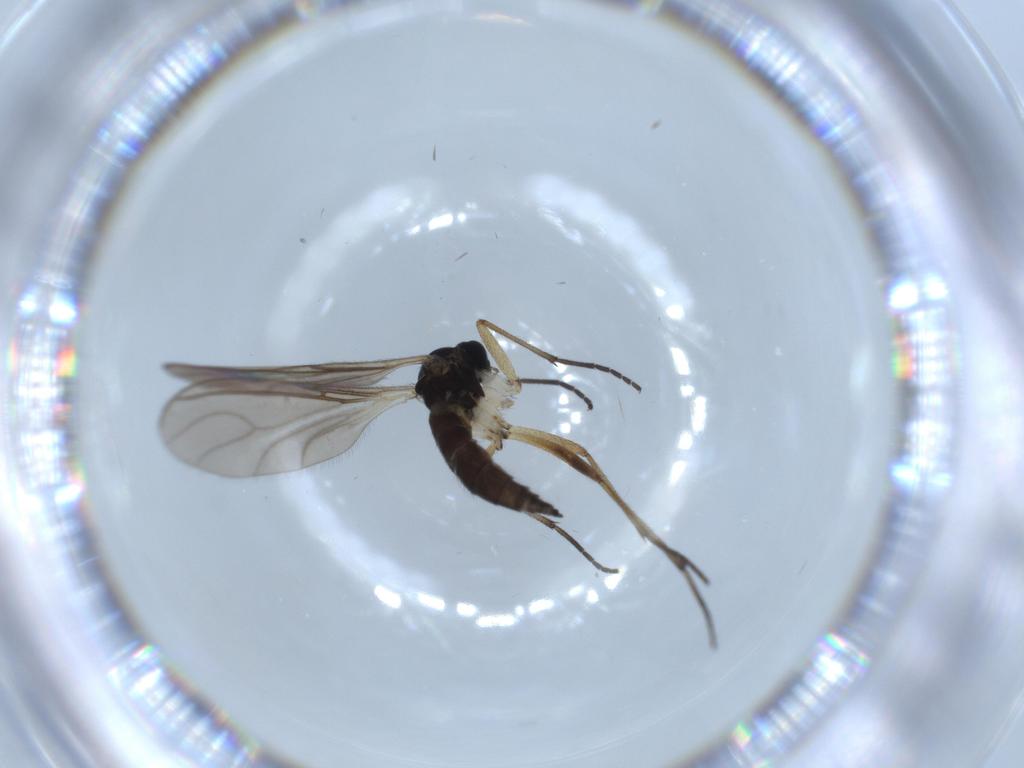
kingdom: Animalia
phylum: Arthropoda
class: Insecta
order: Diptera
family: Sciaridae
